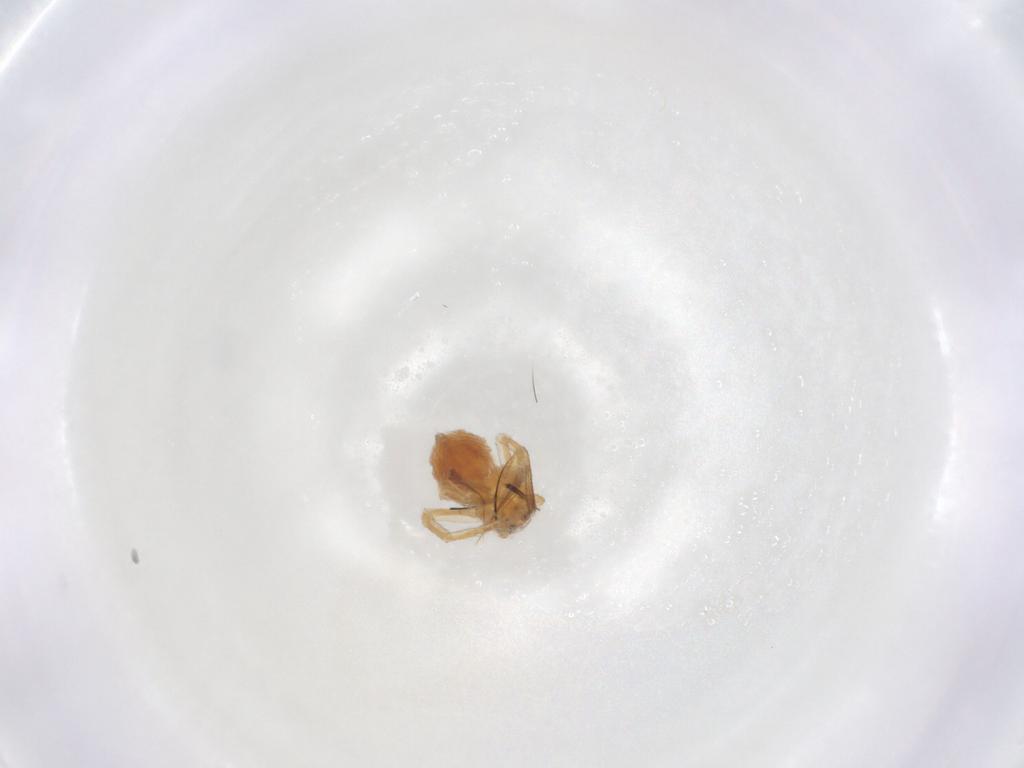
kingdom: Animalia
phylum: Arthropoda
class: Arachnida
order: Araneae
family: Thomisidae
